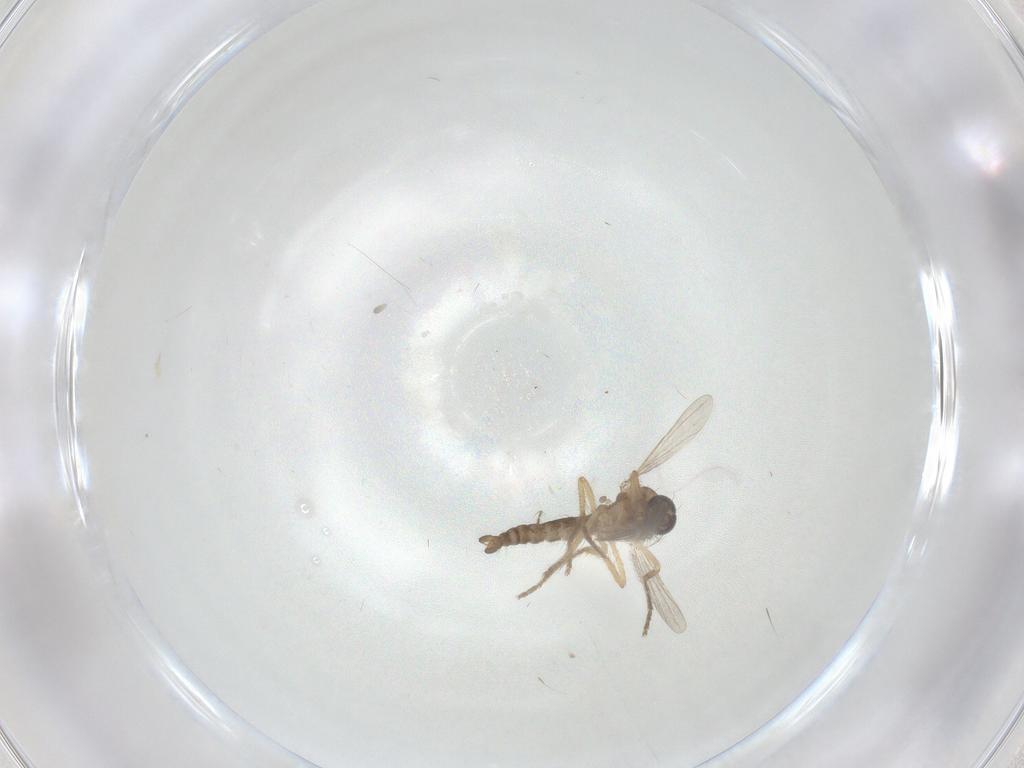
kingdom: Animalia
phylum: Arthropoda
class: Insecta
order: Diptera
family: Ceratopogonidae
